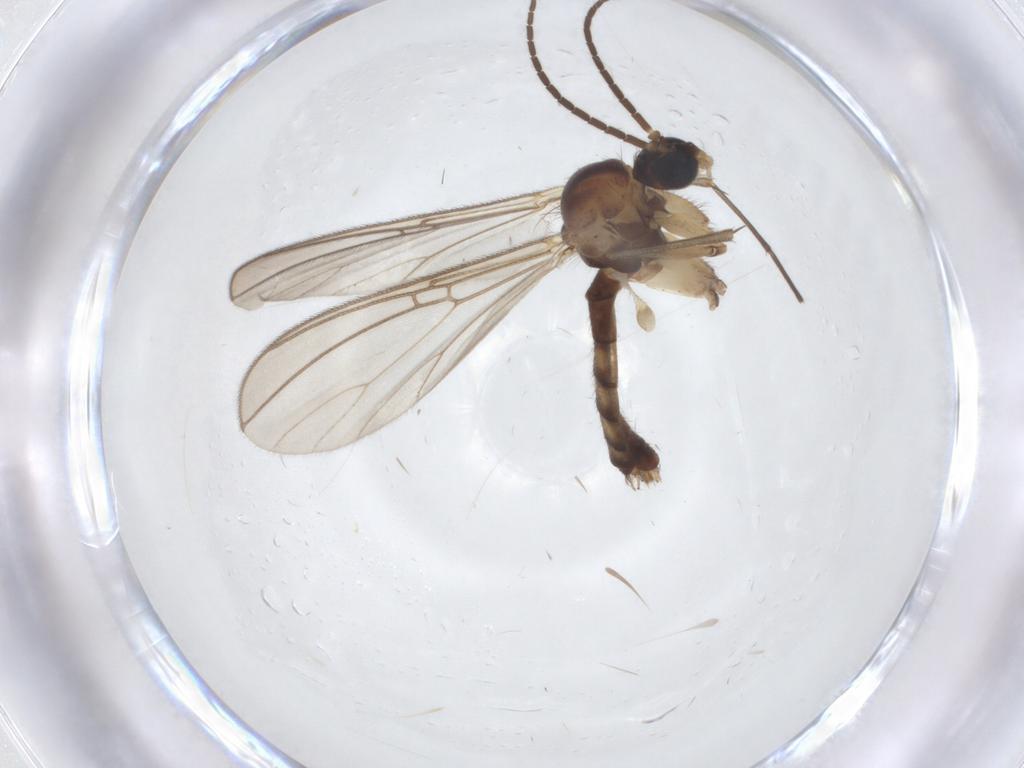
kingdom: Animalia
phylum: Arthropoda
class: Insecta
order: Diptera
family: Mycetophilidae
